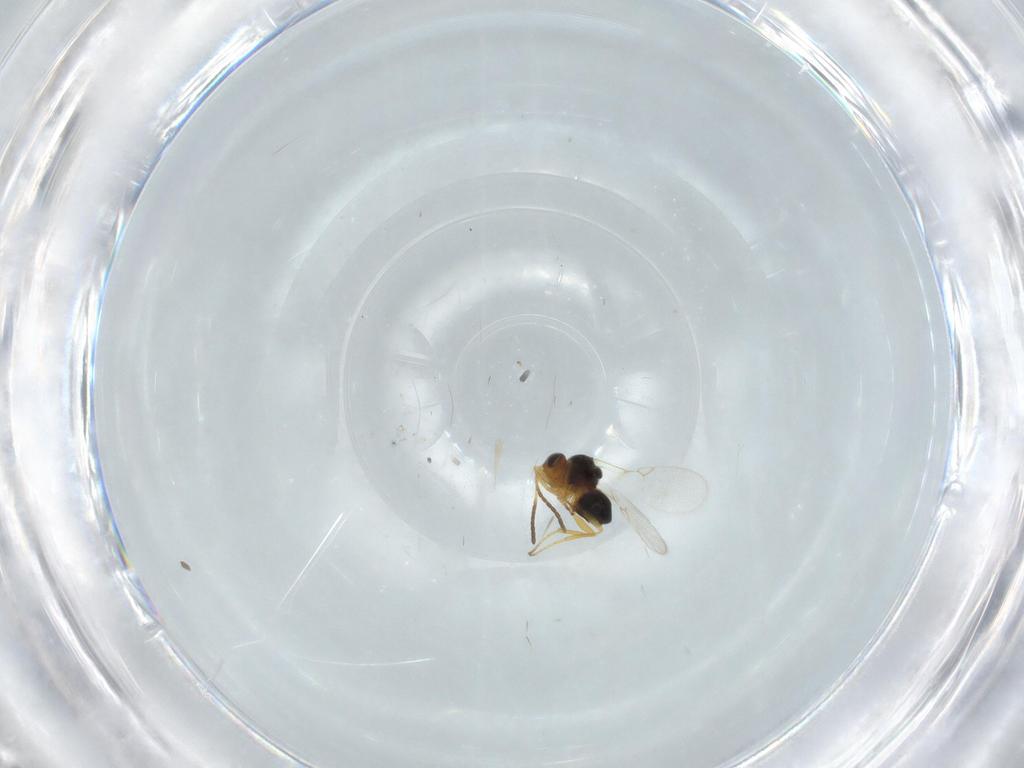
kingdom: Animalia
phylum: Arthropoda
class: Insecta
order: Hymenoptera
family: Figitidae
